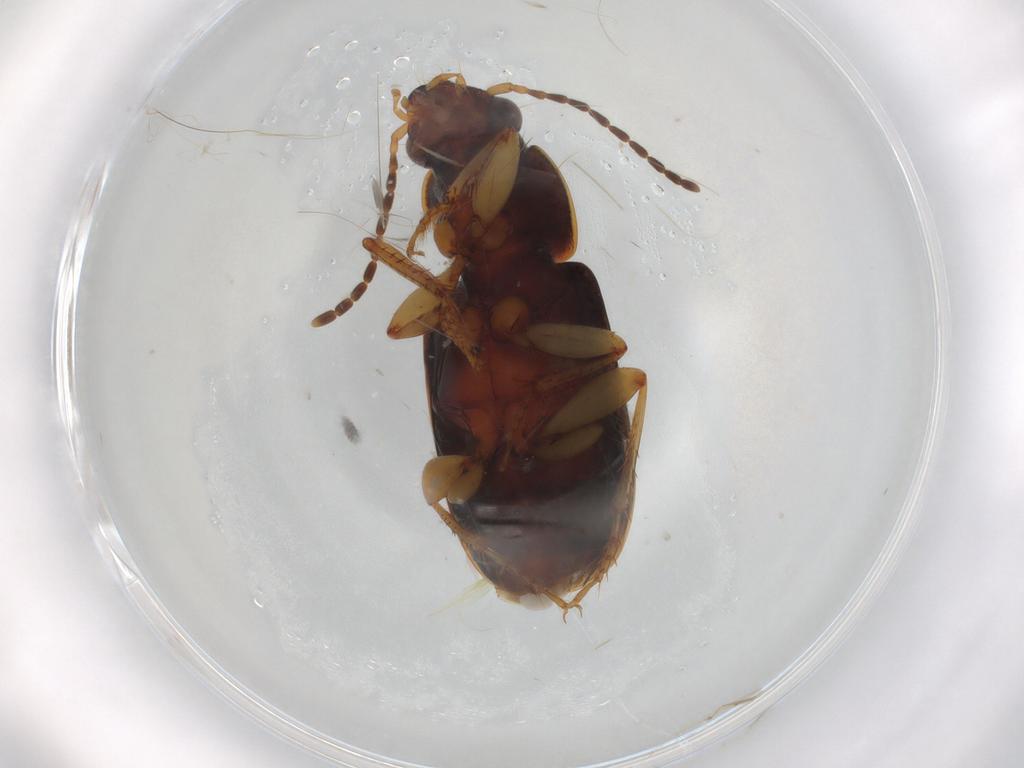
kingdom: Animalia
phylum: Arthropoda
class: Insecta
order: Coleoptera
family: Carabidae
